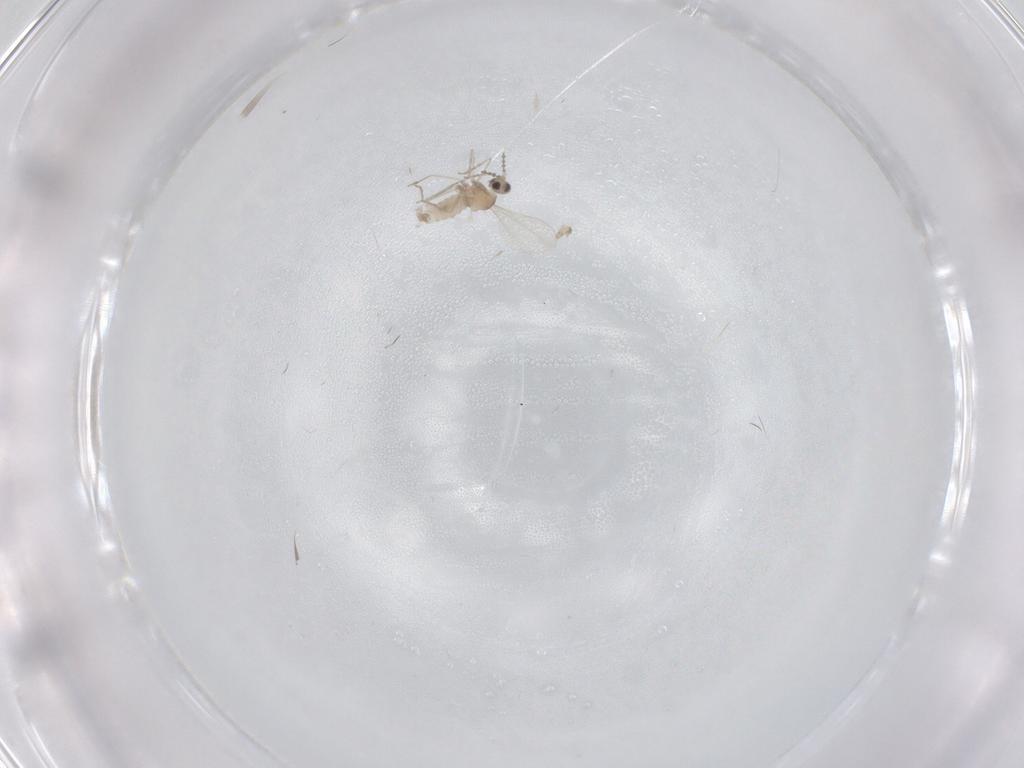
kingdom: Animalia
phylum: Arthropoda
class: Insecta
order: Diptera
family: Cecidomyiidae
